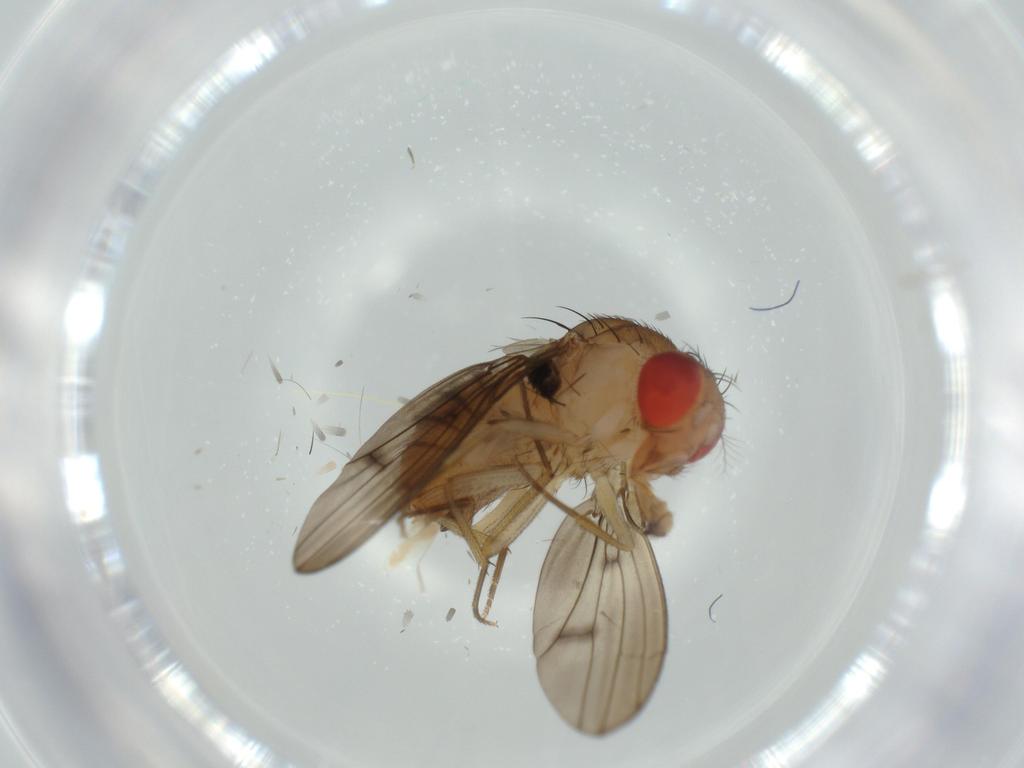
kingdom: Animalia
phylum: Arthropoda
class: Insecta
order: Diptera
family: Drosophilidae
